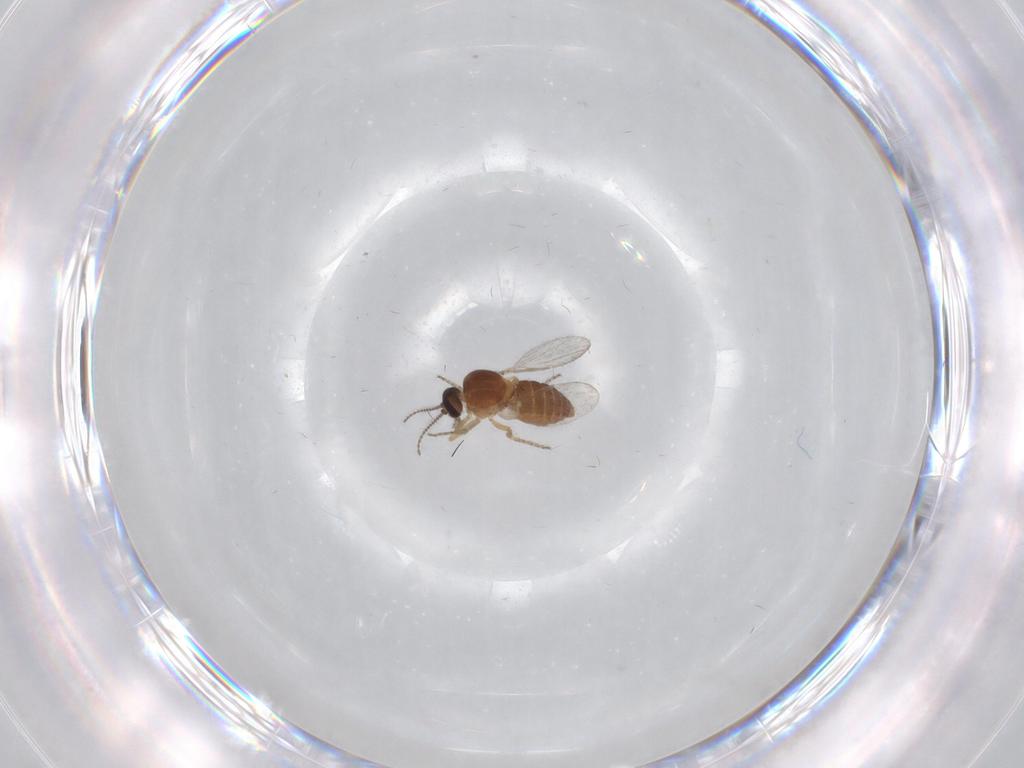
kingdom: Animalia
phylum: Arthropoda
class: Insecta
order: Diptera
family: Bibionidae
